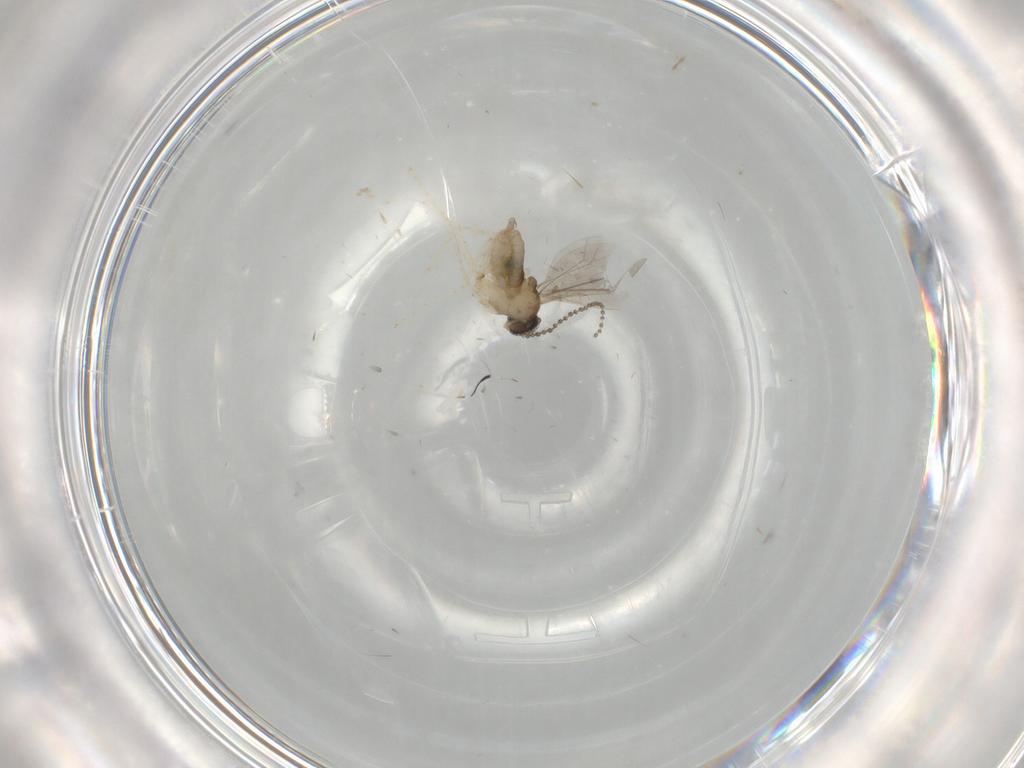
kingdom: Animalia
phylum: Arthropoda
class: Insecta
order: Diptera
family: Cecidomyiidae
